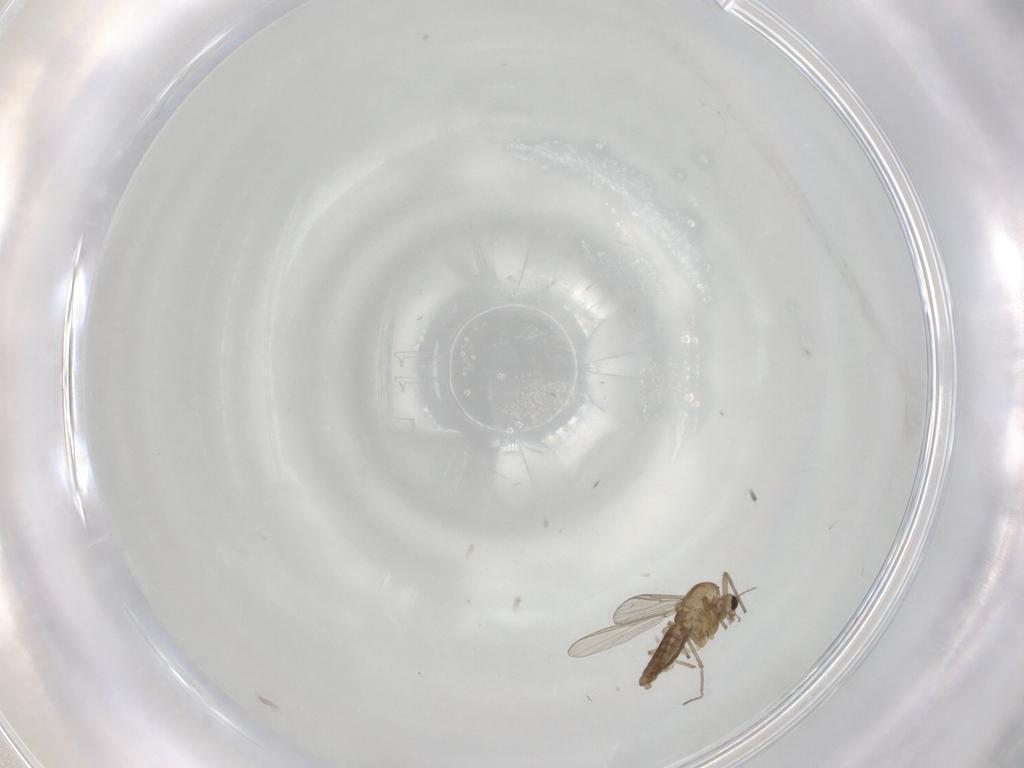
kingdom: Animalia
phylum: Arthropoda
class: Insecta
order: Diptera
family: Chironomidae
